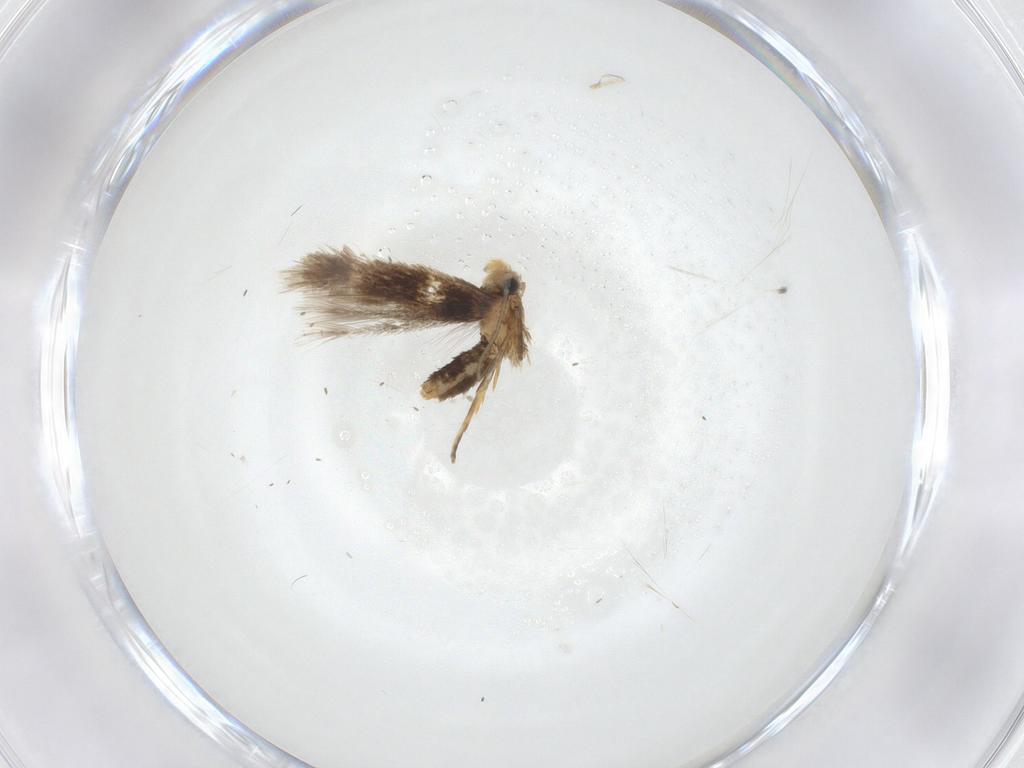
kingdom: Animalia
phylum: Arthropoda
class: Insecta
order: Lepidoptera
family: Nepticulidae
